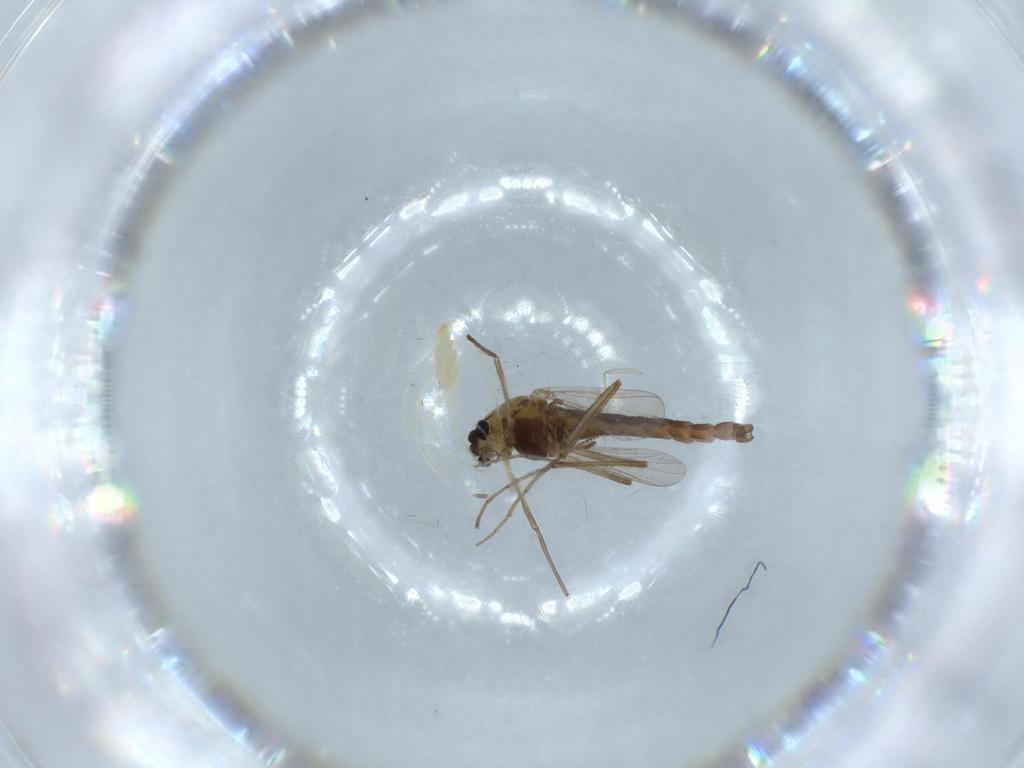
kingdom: Animalia
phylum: Arthropoda
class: Insecta
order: Diptera
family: Chironomidae
